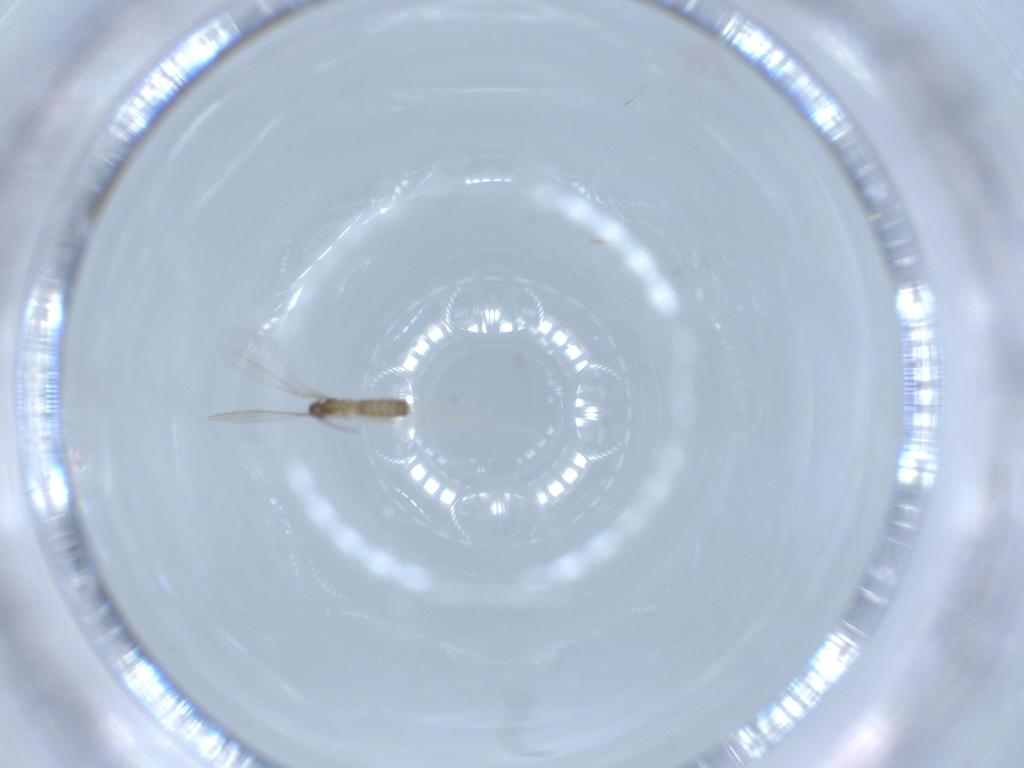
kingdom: Animalia
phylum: Arthropoda
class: Insecta
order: Diptera
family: Cecidomyiidae
